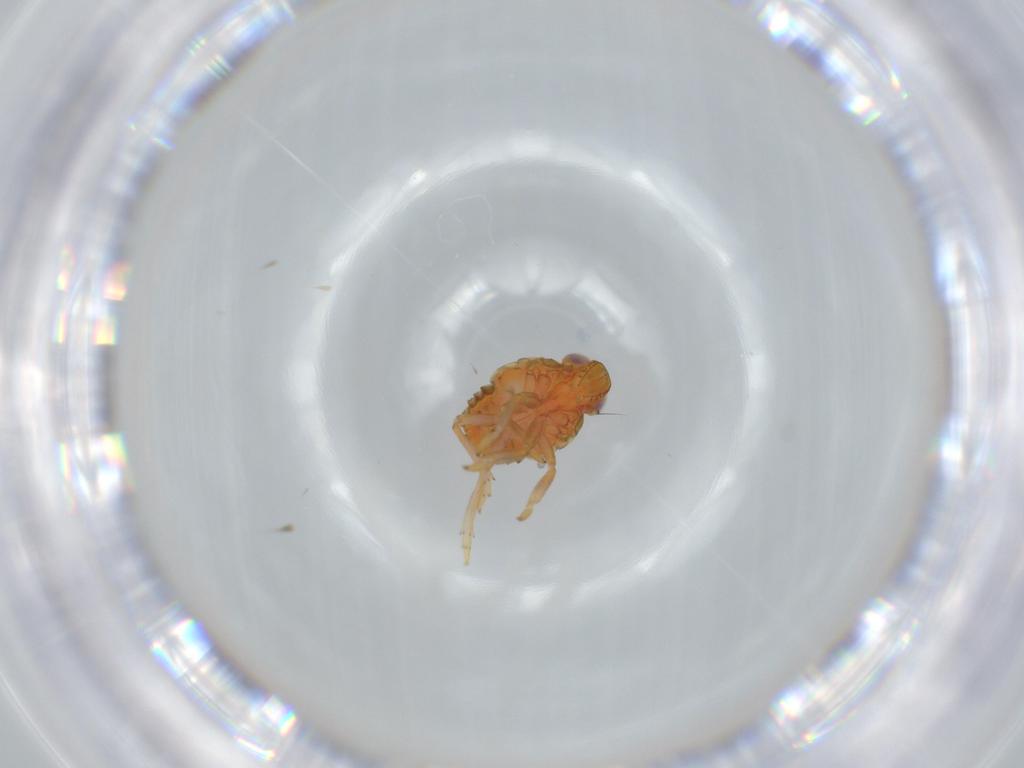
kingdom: Animalia
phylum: Arthropoda
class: Insecta
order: Hemiptera
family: Issidae
